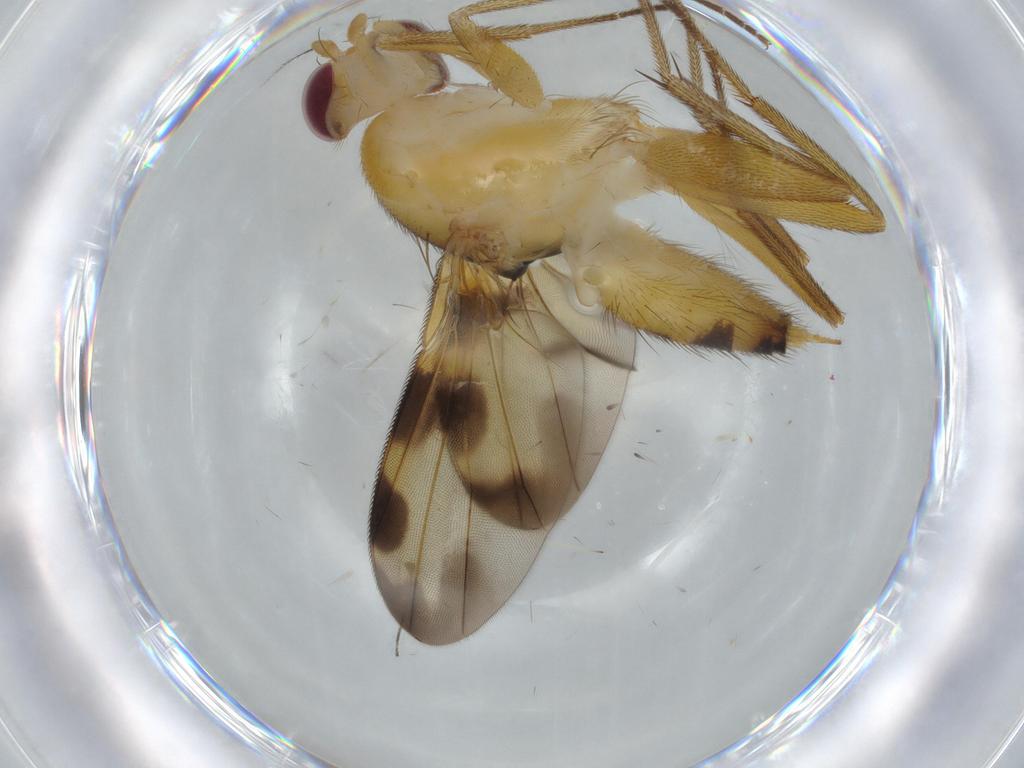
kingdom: Animalia
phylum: Arthropoda
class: Insecta
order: Diptera
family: Clusiidae
